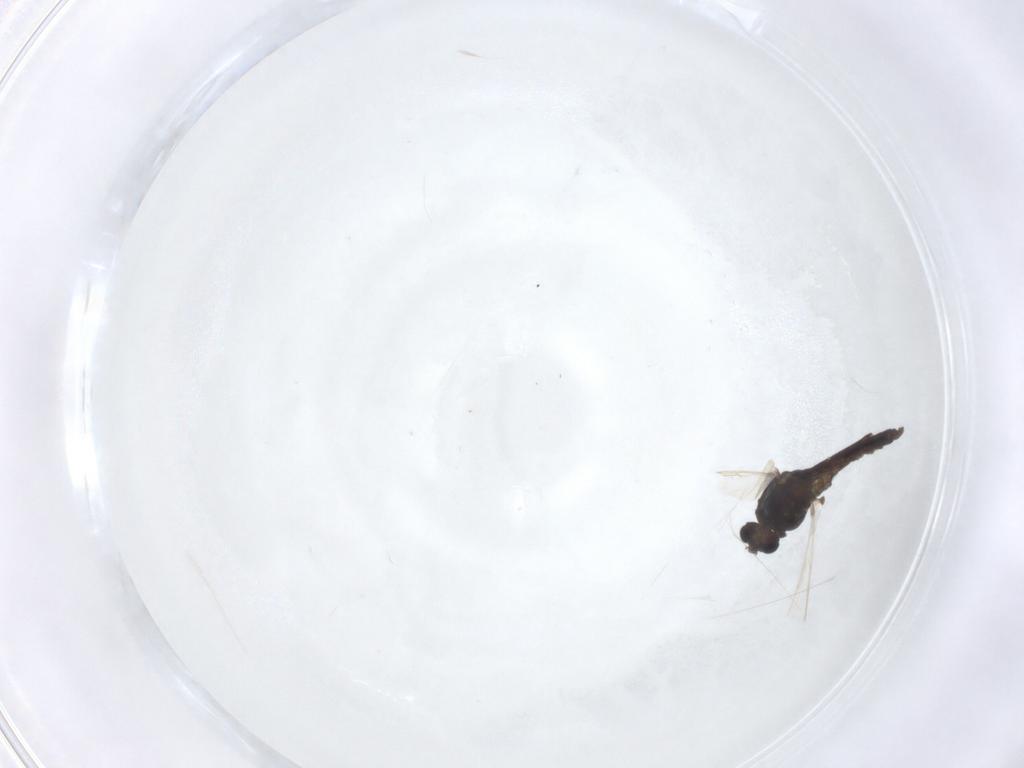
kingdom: Animalia
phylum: Arthropoda
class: Insecta
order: Diptera
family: Chironomidae
